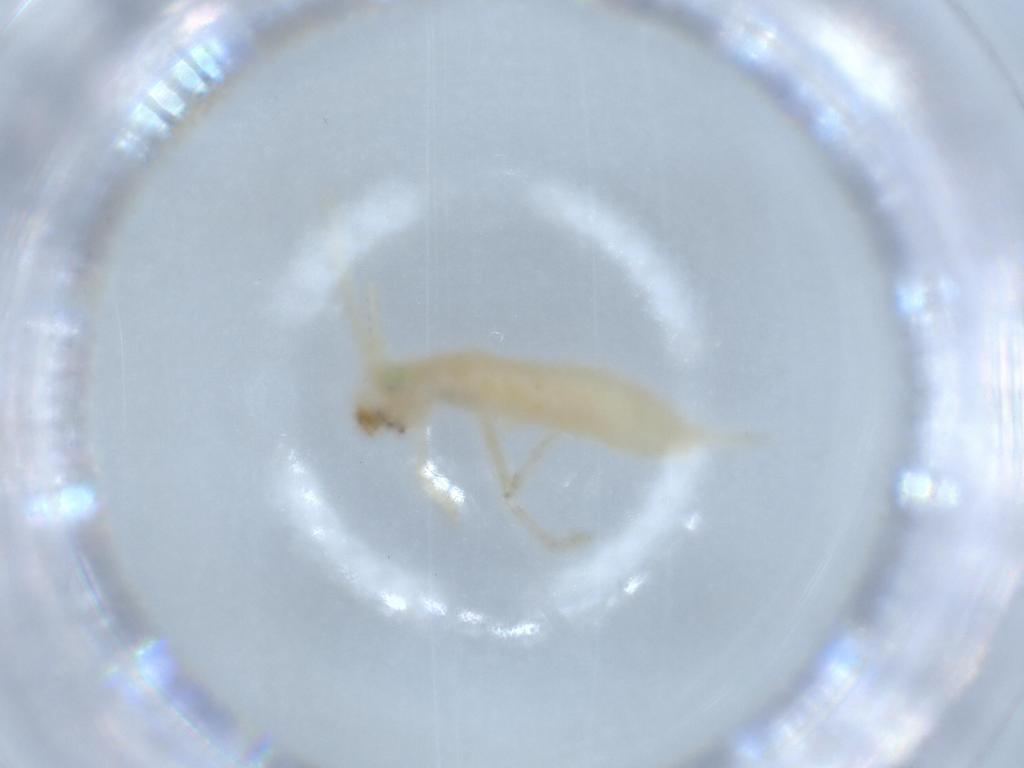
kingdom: Animalia
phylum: Arthropoda
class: Insecta
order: Orthoptera
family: Trigonidiidae
